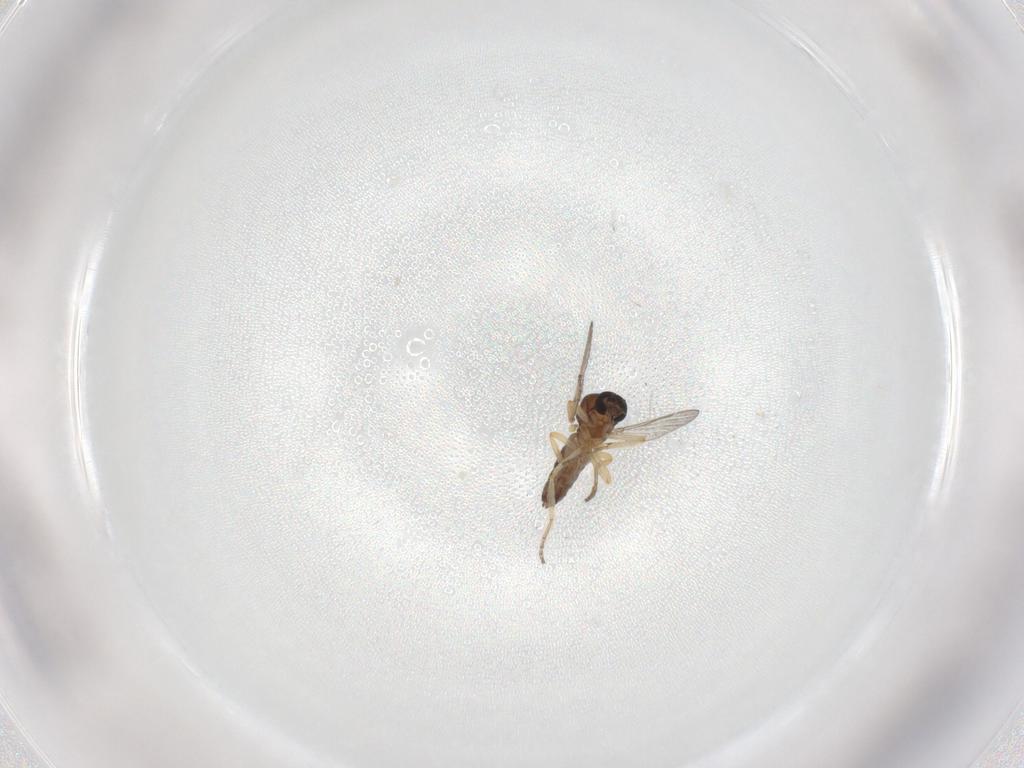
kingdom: Animalia
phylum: Arthropoda
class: Insecta
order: Diptera
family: Ceratopogonidae
